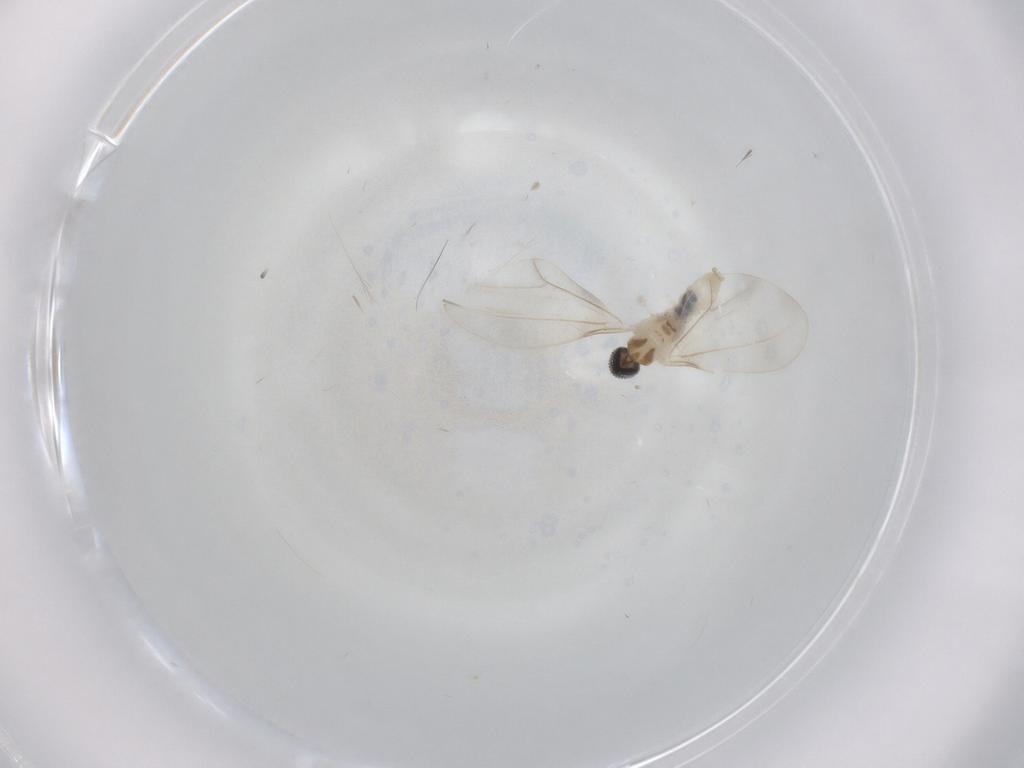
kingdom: Animalia
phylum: Arthropoda
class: Insecta
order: Diptera
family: Cecidomyiidae
